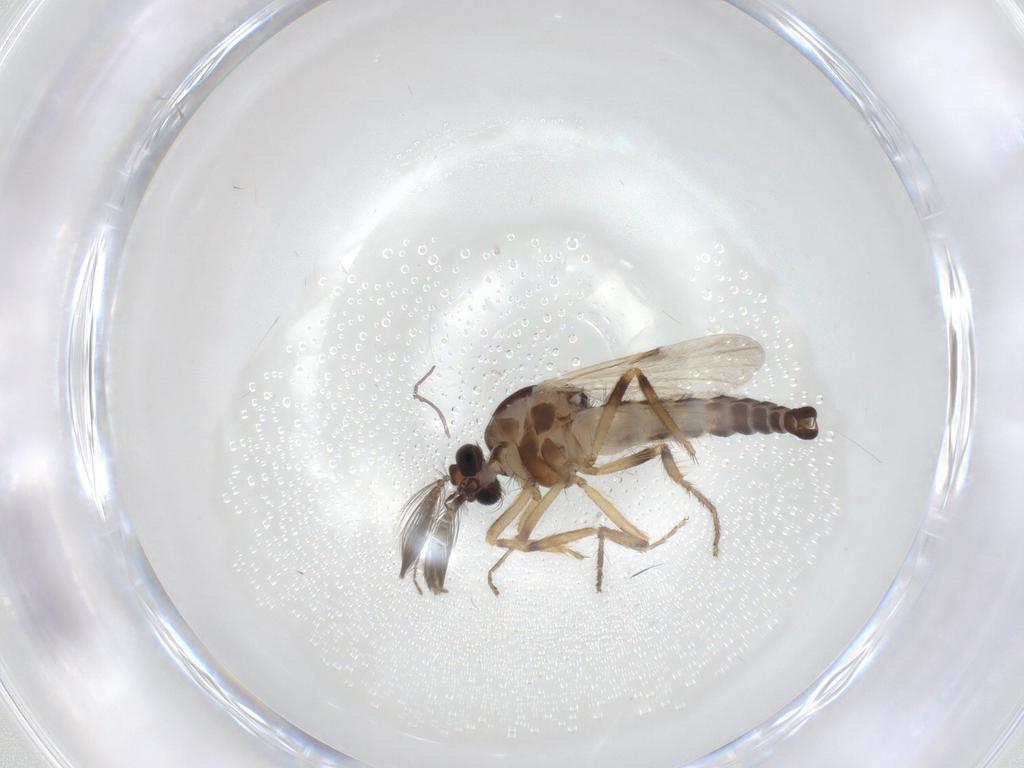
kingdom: Animalia
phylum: Arthropoda
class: Insecta
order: Diptera
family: Ceratopogonidae
